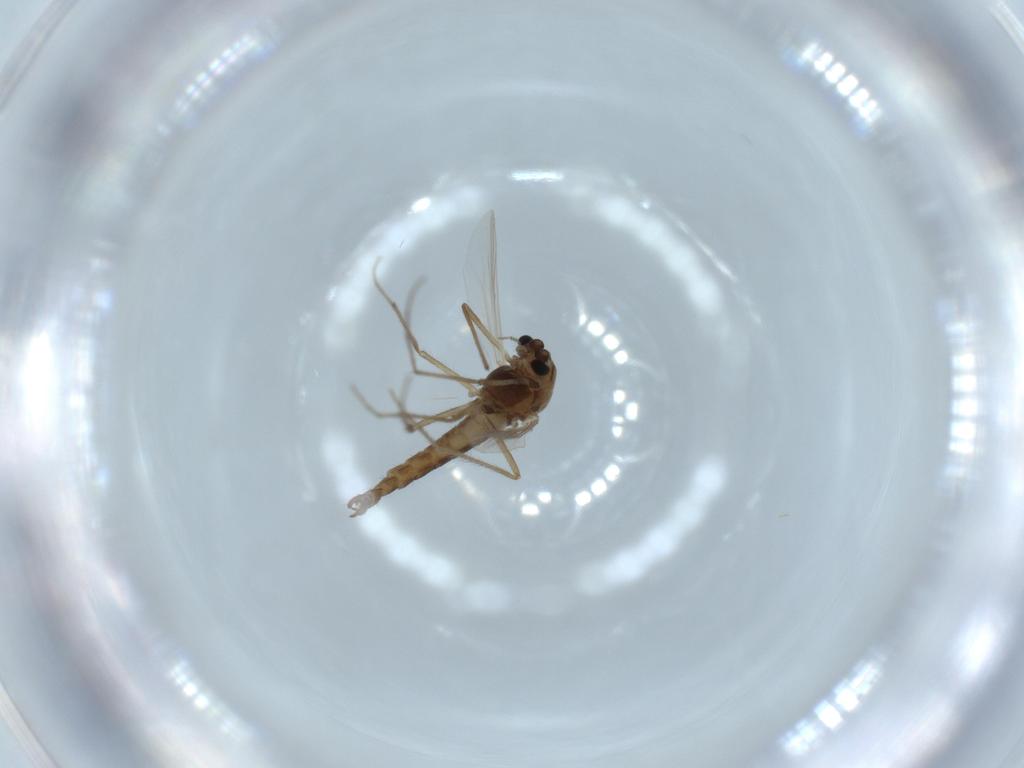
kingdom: Animalia
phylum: Arthropoda
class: Insecta
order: Diptera
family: Chironomidae
